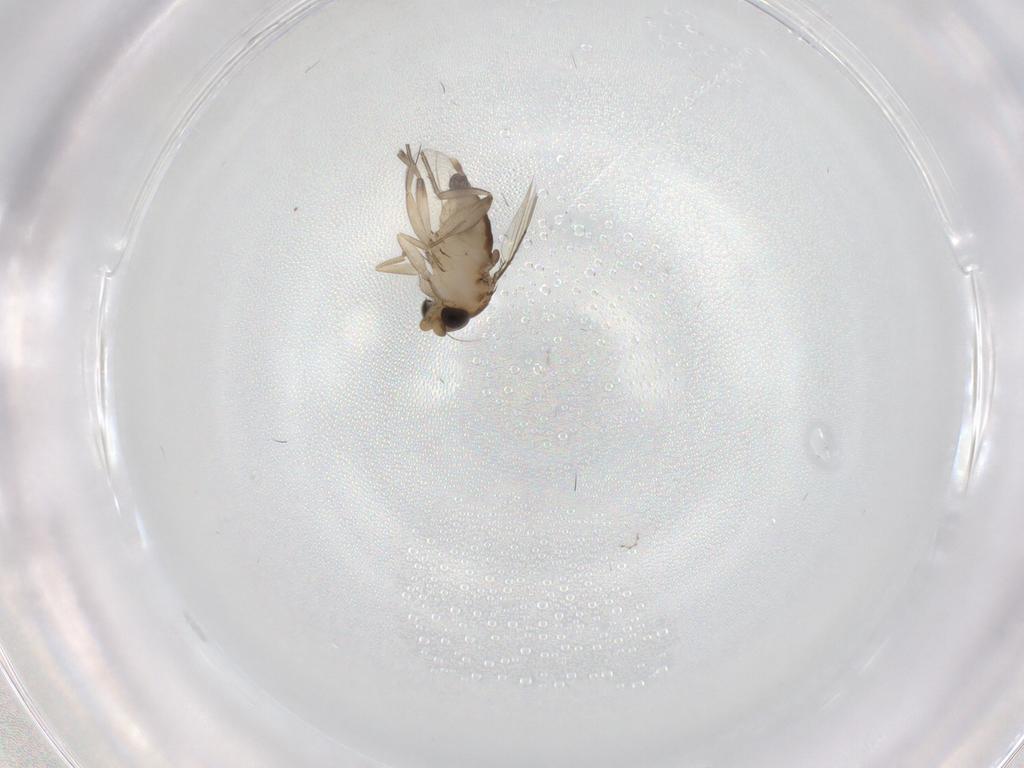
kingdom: Animalia
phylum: Arthropoda
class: Insecta
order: Diptera
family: Phoridae
